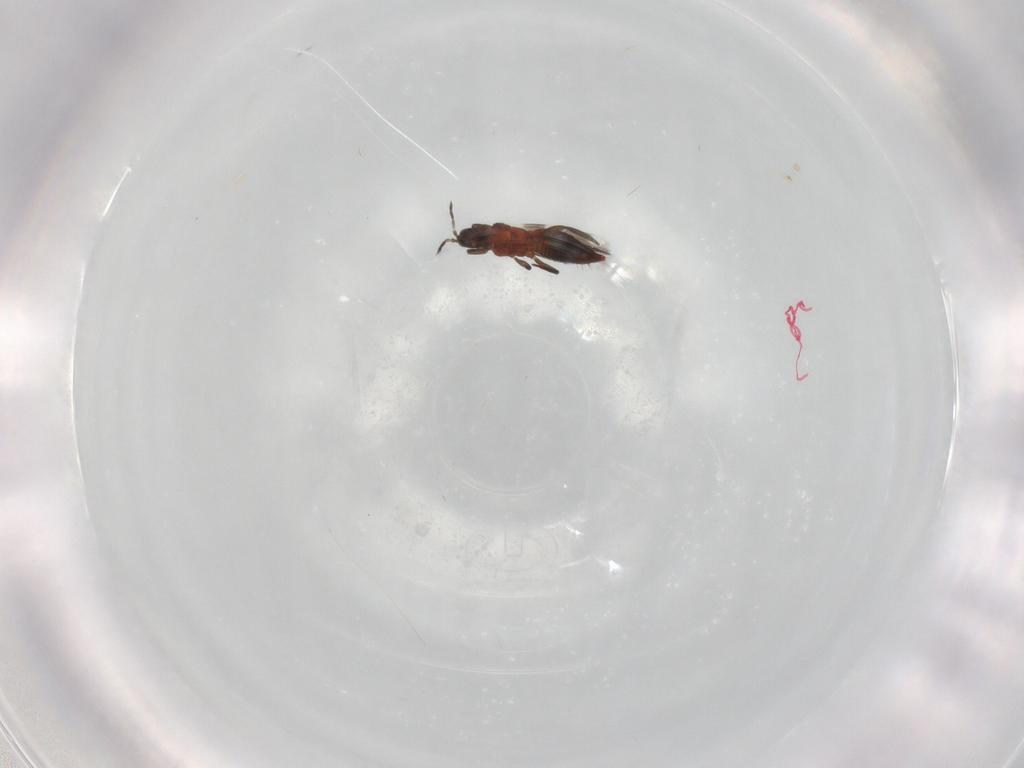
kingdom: Animalia
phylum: Arthropoda
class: Insecta
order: Thysanoptera
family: Aeolothripidae
